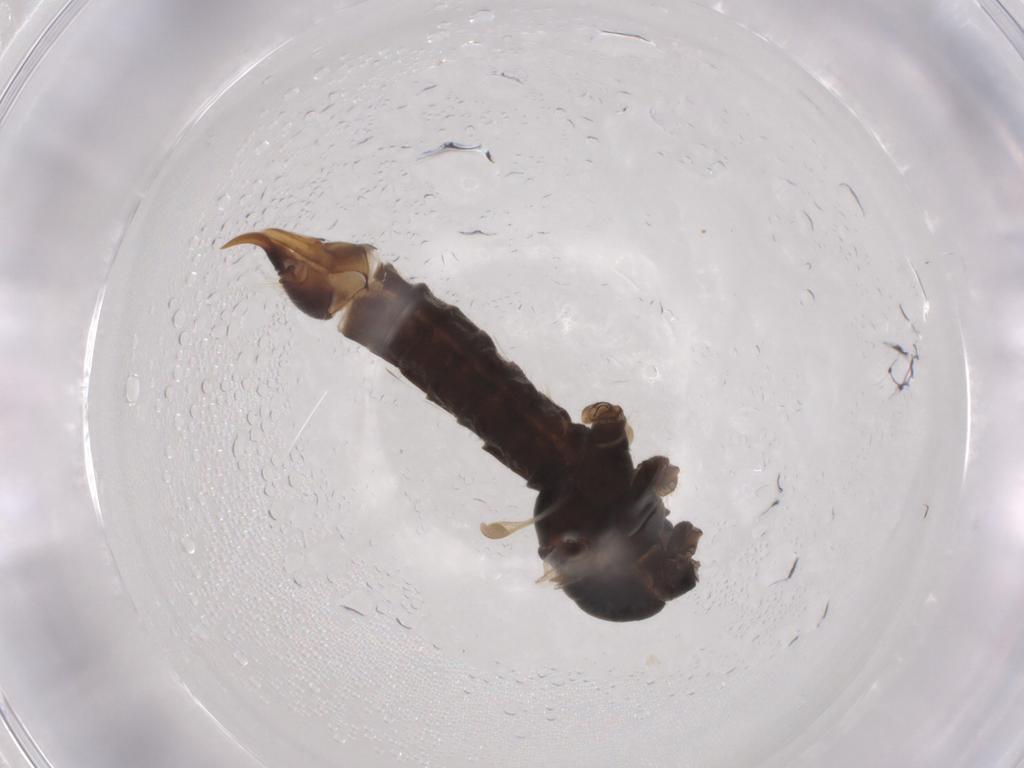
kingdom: Animalia
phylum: Arthropoda
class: Insecta
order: Diptera
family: Limoniidae
